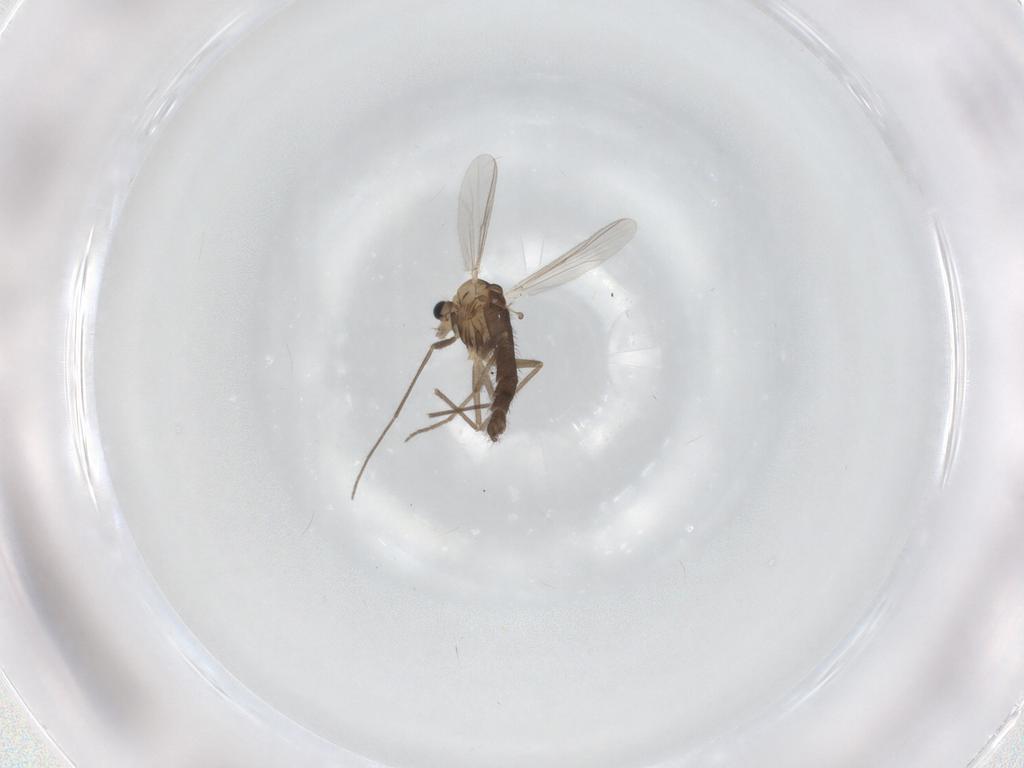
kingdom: Animalia
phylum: Arthropoda
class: Insecta
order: Diptera
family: Chironomidae
